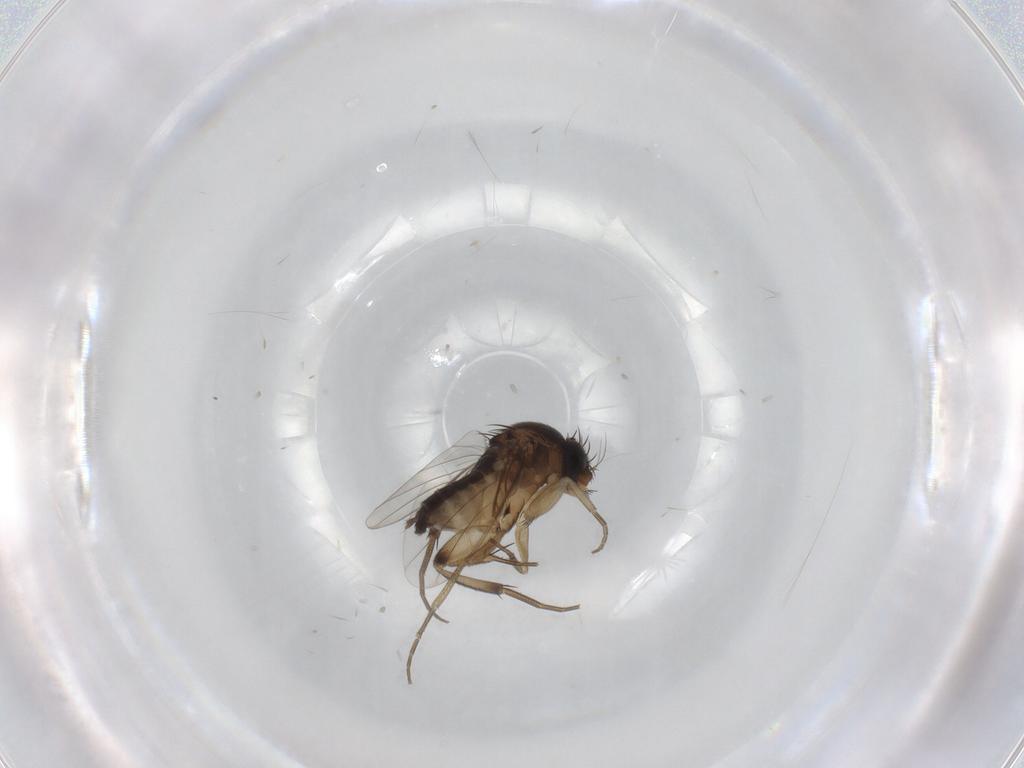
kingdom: Animalia
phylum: Arthropoda
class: Insecta
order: Diptera
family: Phoridae
